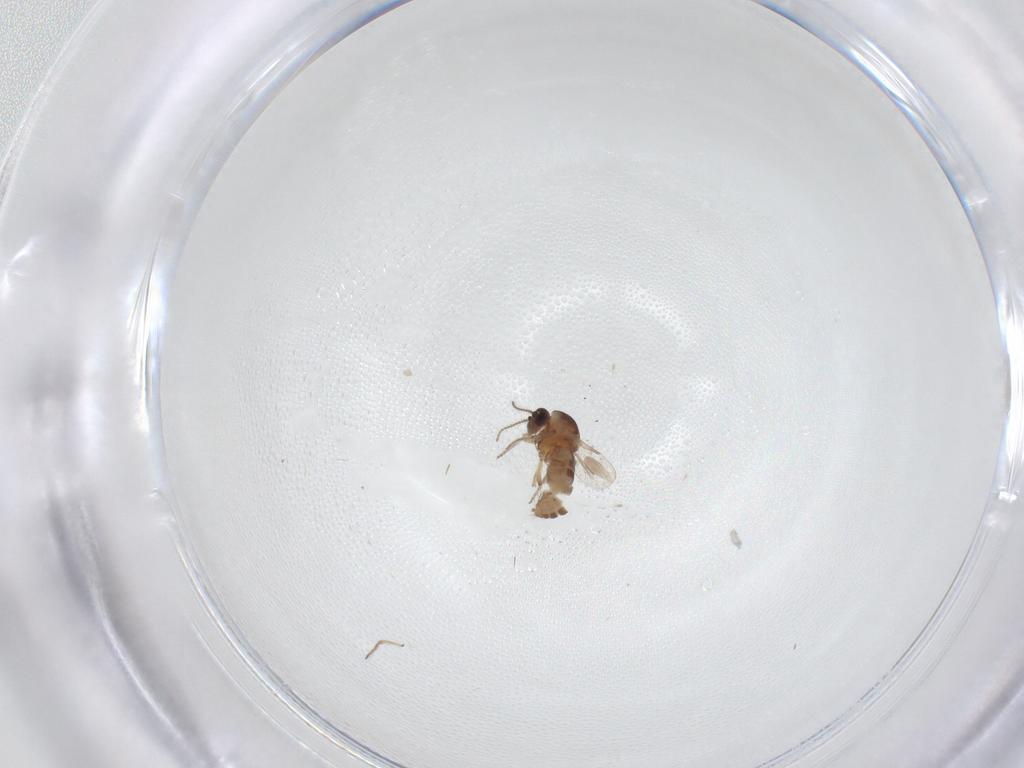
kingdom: Animalia
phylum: Arthropoda
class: Insecta
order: Diptera
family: Ceratopogonidae
